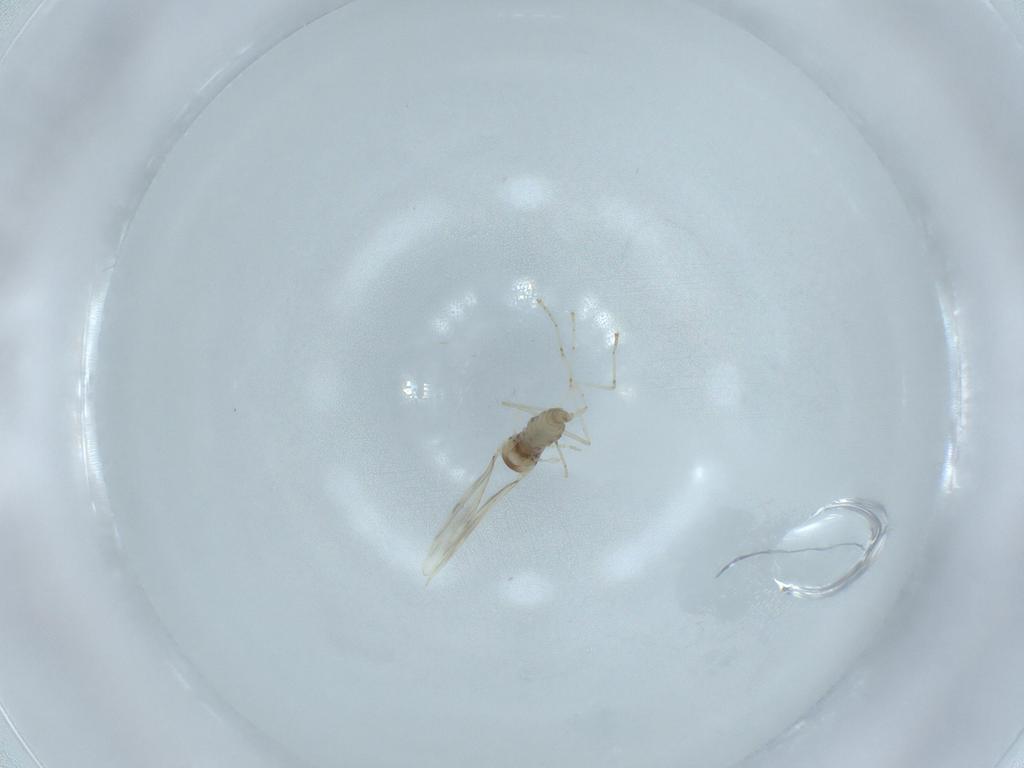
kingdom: Animalia
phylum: Arthropoda
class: Insecta
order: Diptera
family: Cecidomyiidae
